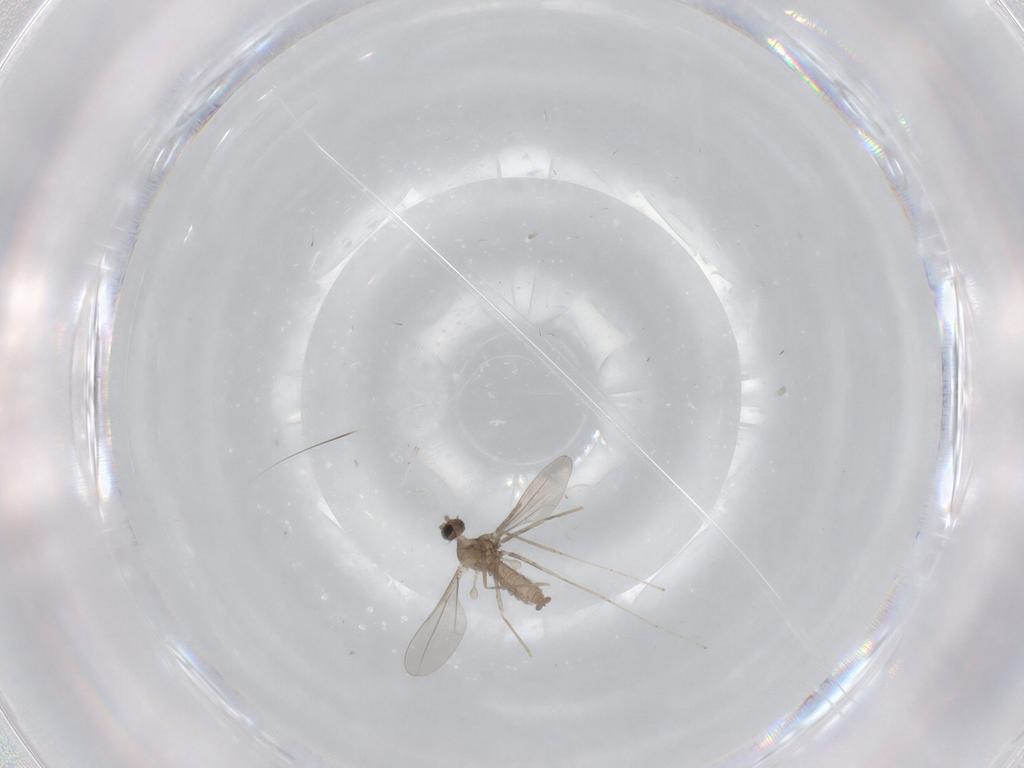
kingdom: Animalia
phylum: Arthropoda
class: Insecta
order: Diptera
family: Cecidomyiidae
